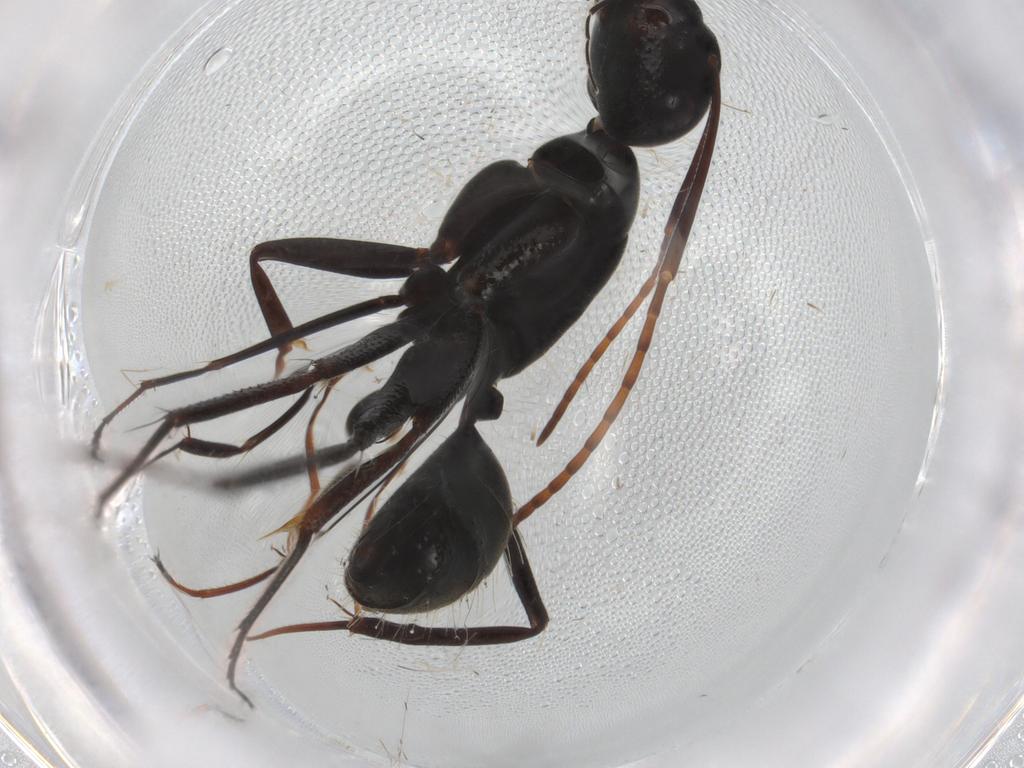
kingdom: Animalia
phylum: Arthropoda
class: Insecta
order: Hymenoptera
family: Formicidae
